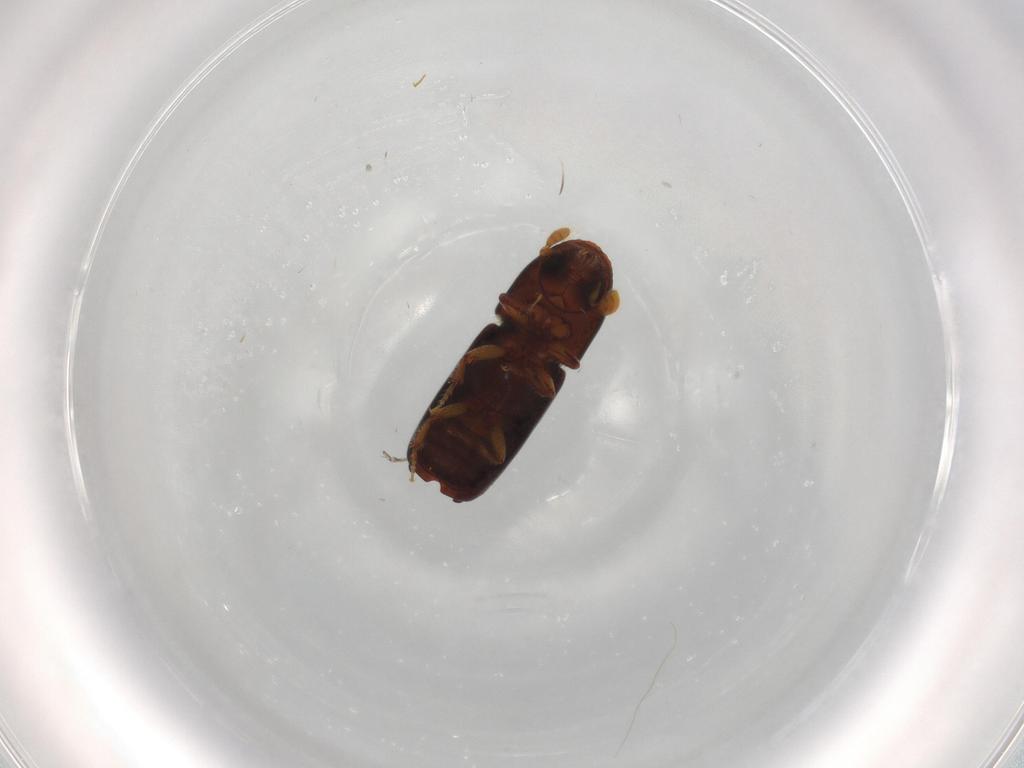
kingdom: Animalia
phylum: Arthropoda
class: Insecta
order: Coleoptera
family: Curculionidae
